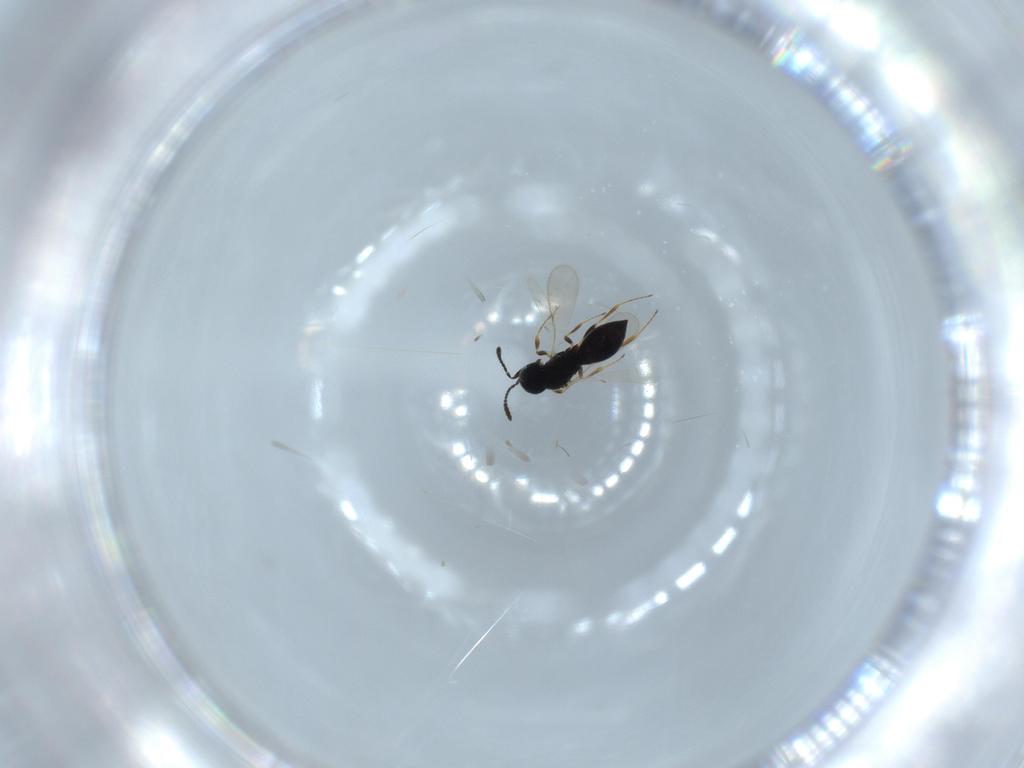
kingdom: Animalia
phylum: Arthropoda
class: Insecta
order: Hymenoptera
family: Scelionidae
